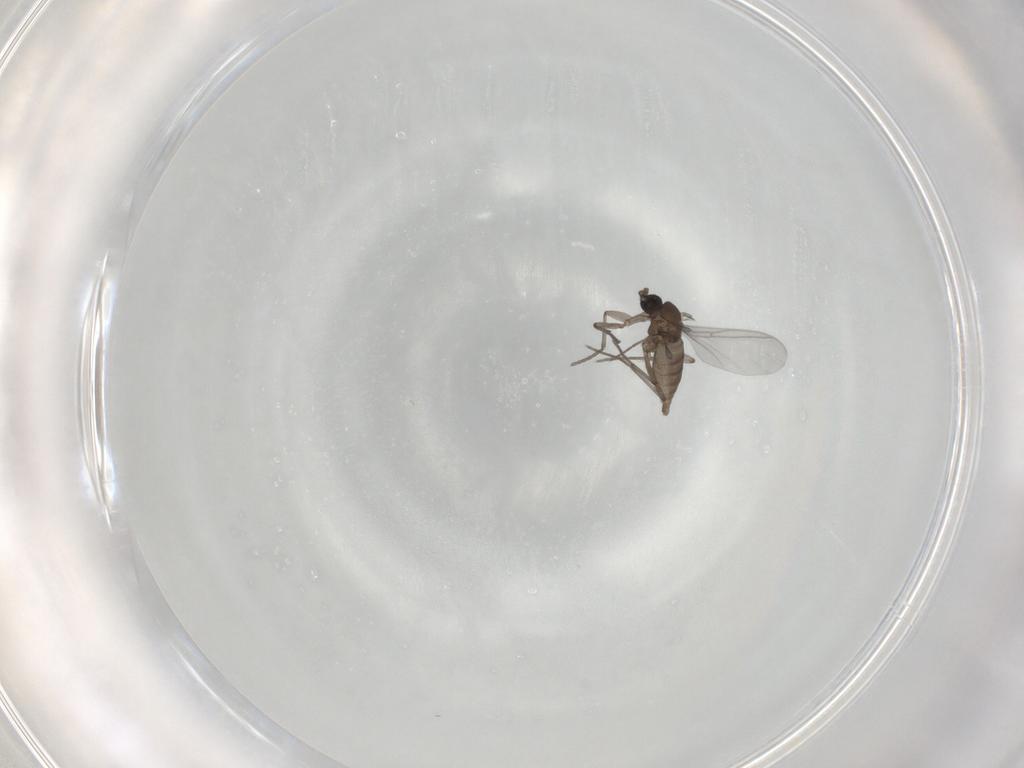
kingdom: Animalia
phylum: Arthropoda
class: Insecta
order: Diptera
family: Sciaridae
